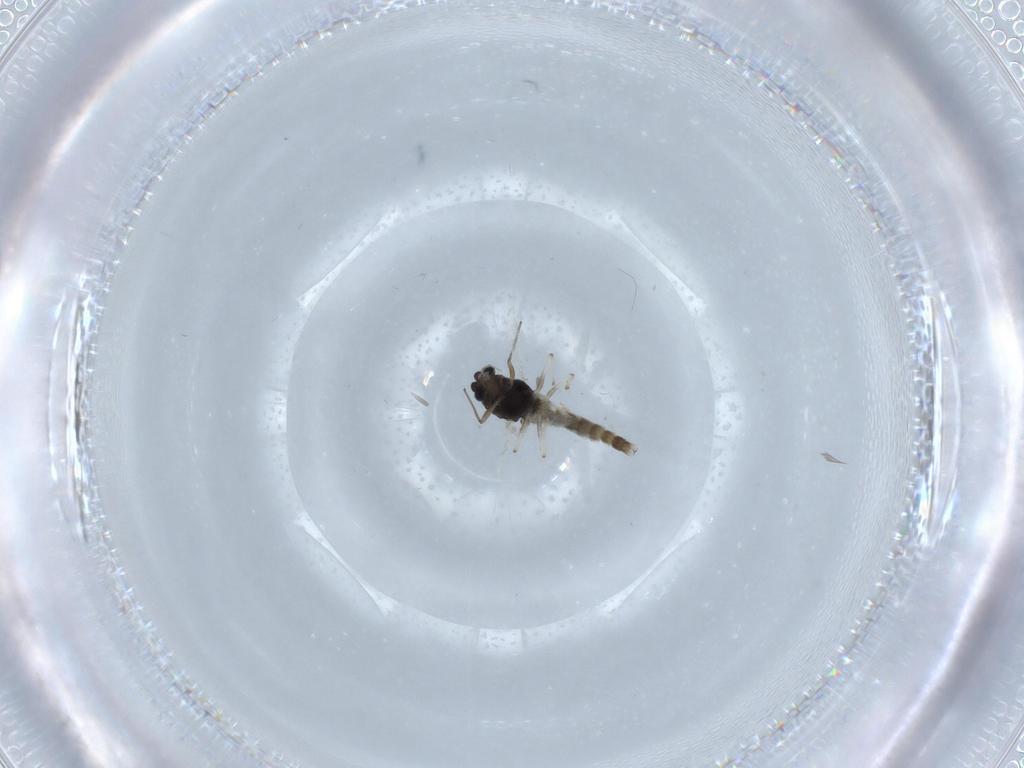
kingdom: Animalia
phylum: Arthropoda
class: Insecta
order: Diptera
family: Chironomidae
